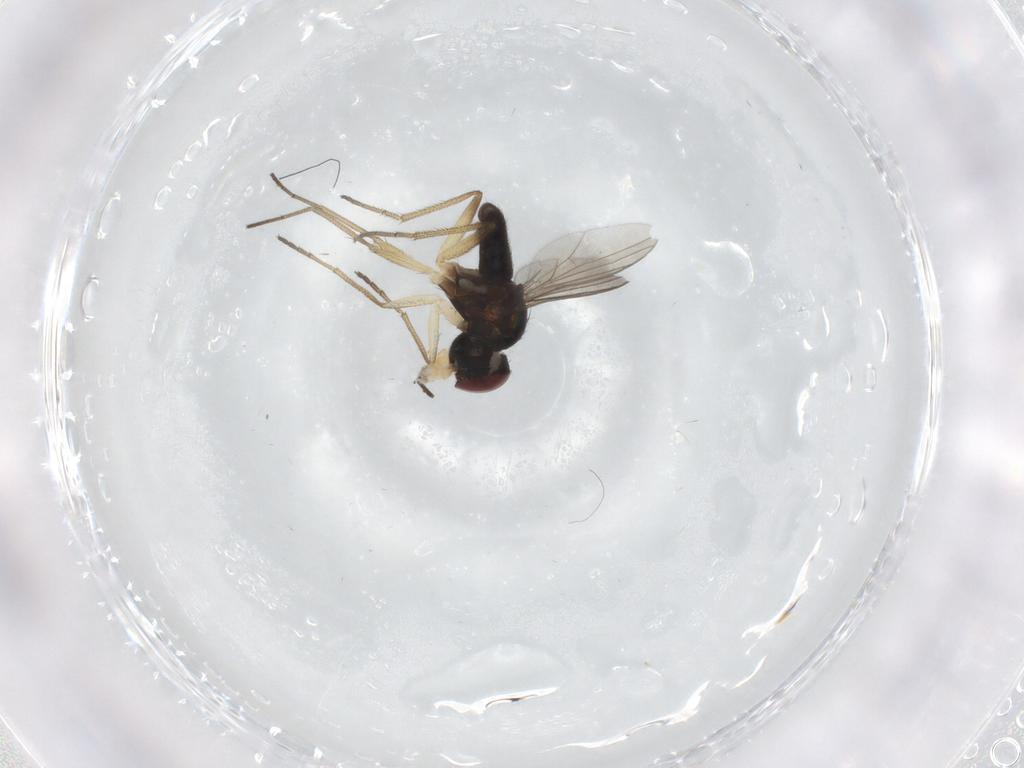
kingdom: Animalia
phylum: Arthropoda
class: Insecta
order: Diptera
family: Dolichopodidae
